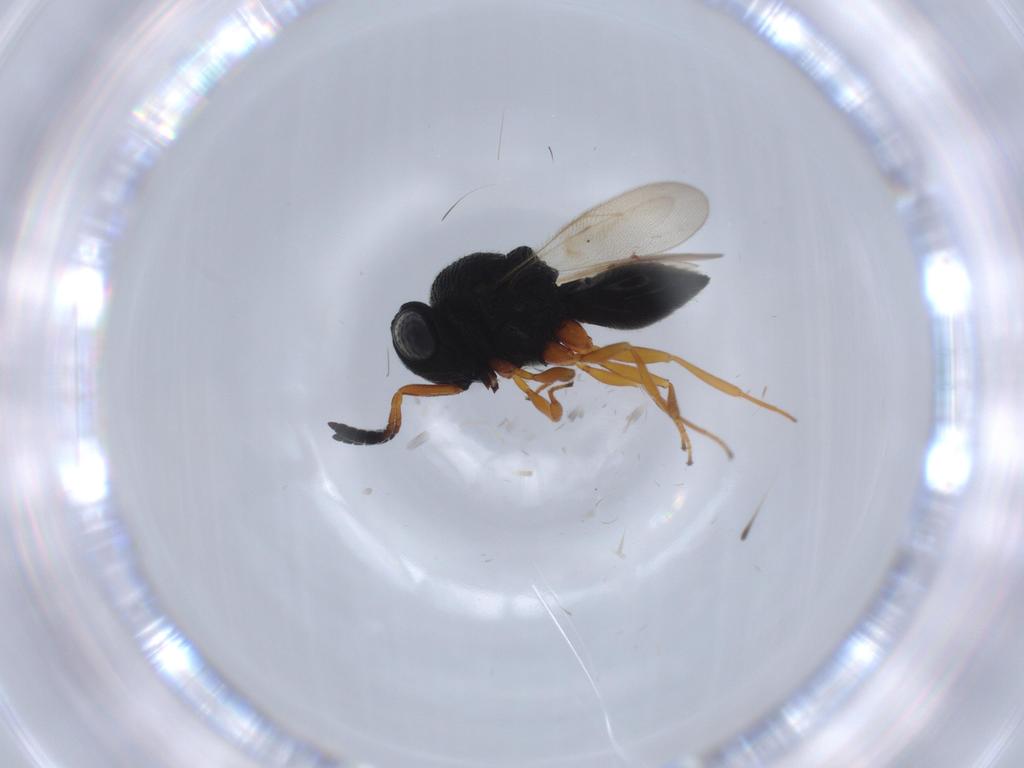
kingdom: Animalia
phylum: Arthropoda
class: Insecta
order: Hymenoptera
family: Scelionidae
